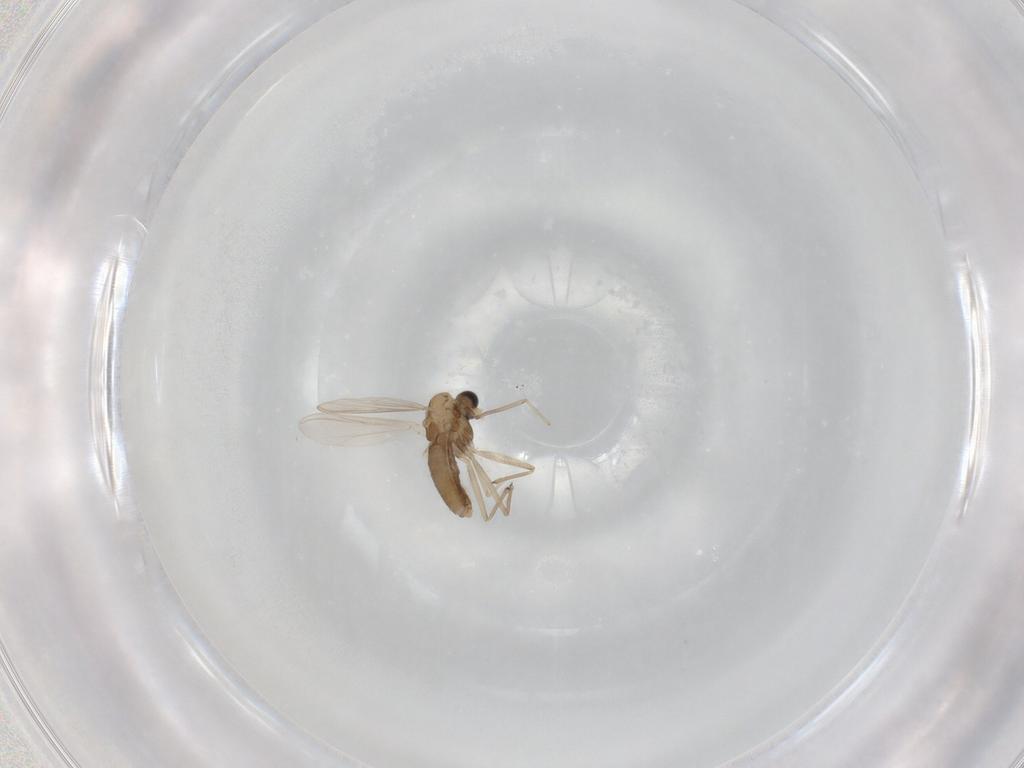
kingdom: Animalia
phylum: Arthropoda
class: Insecta
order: Diptera
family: Chironomidae
